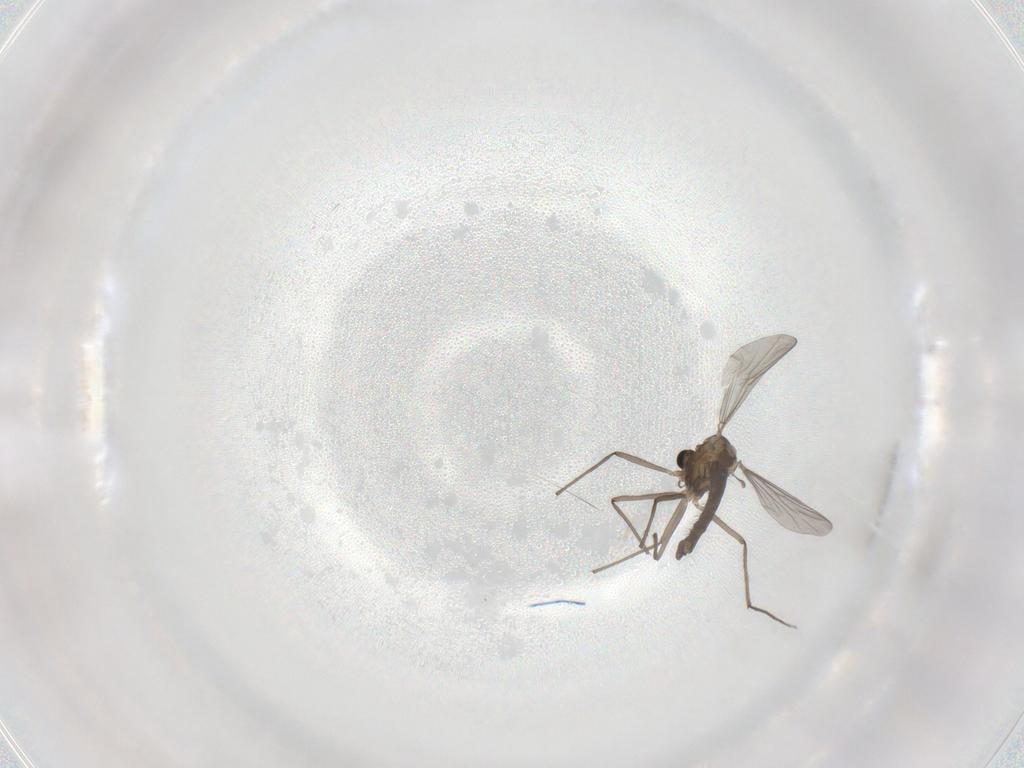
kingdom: Animalia
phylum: Arthropoda
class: Insecta
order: Diptera
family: Chironomidae
